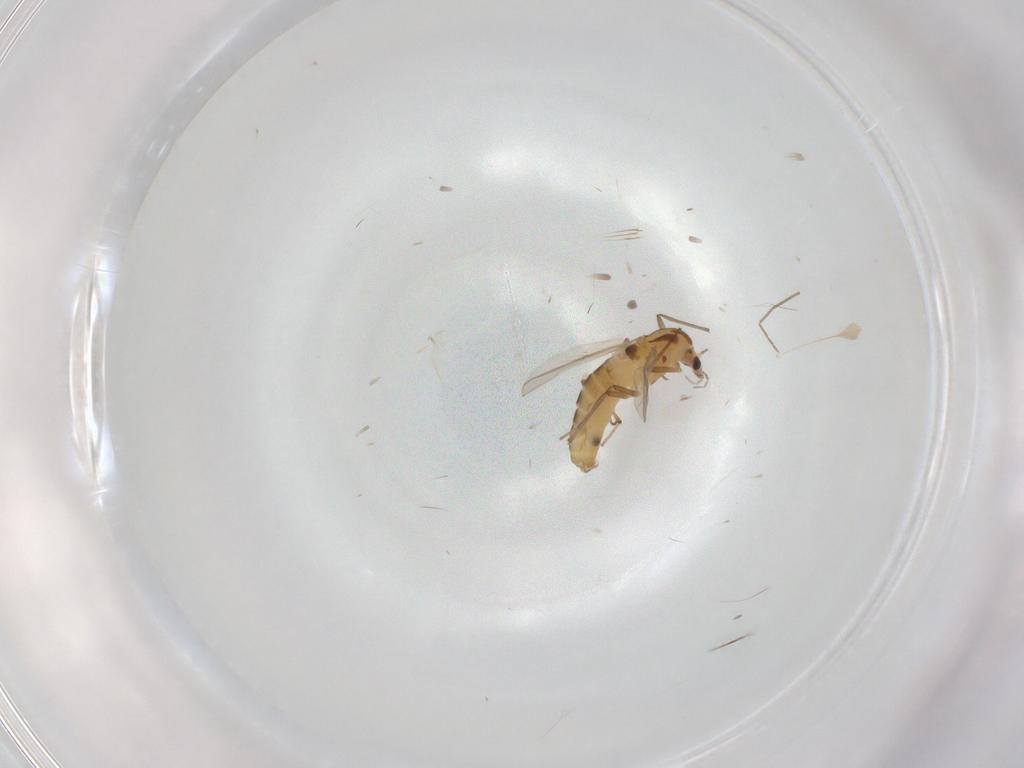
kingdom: Animalia
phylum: Arthropoda
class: Insecta
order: Diptera
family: Chironomidae
